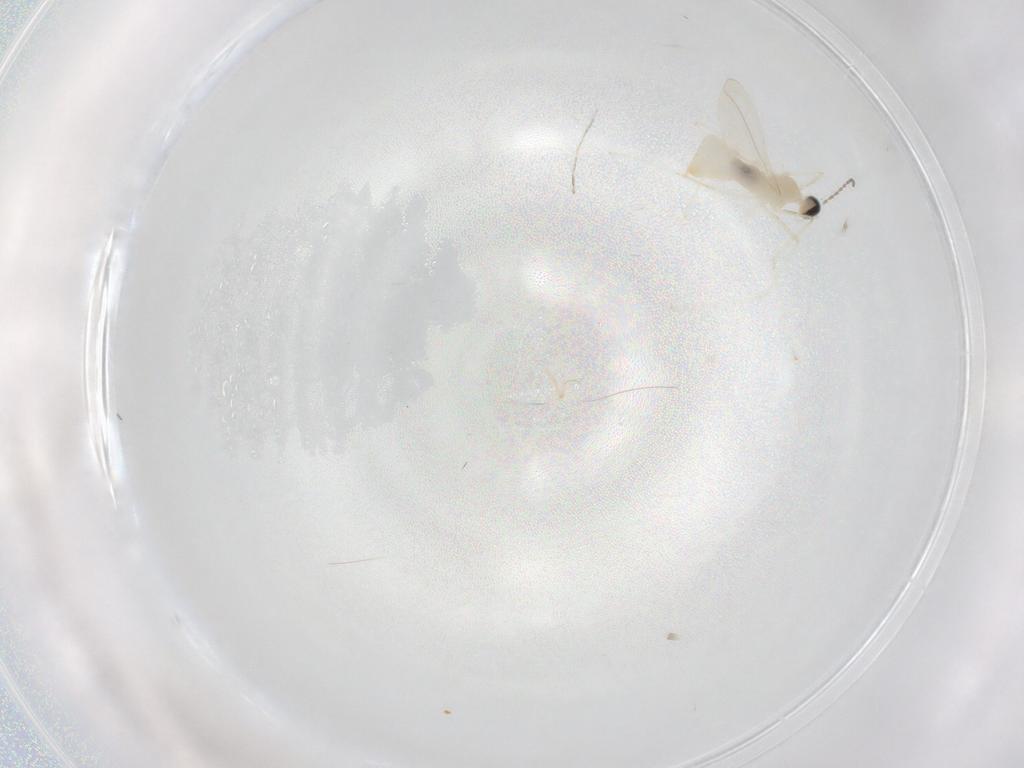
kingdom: Animalia
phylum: Arthropoda
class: Insecta
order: Diptera
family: Cecidomyiidae
